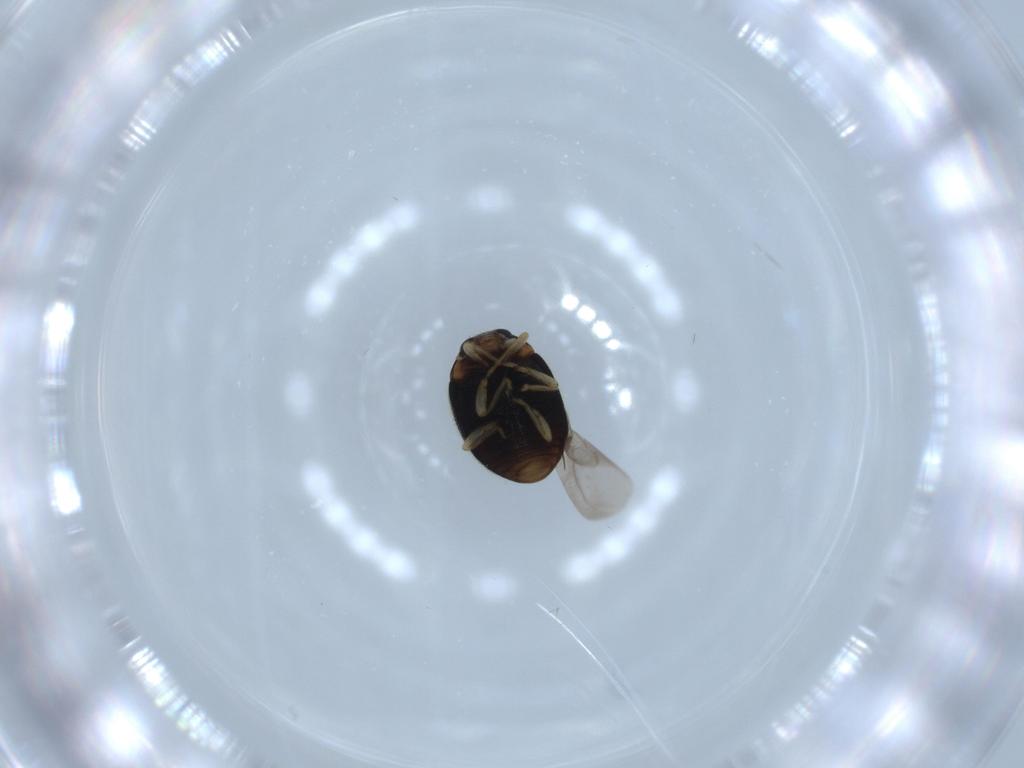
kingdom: Animalia
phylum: Arthropoda
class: Insecta
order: Coleoptera
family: Coccinellidae
